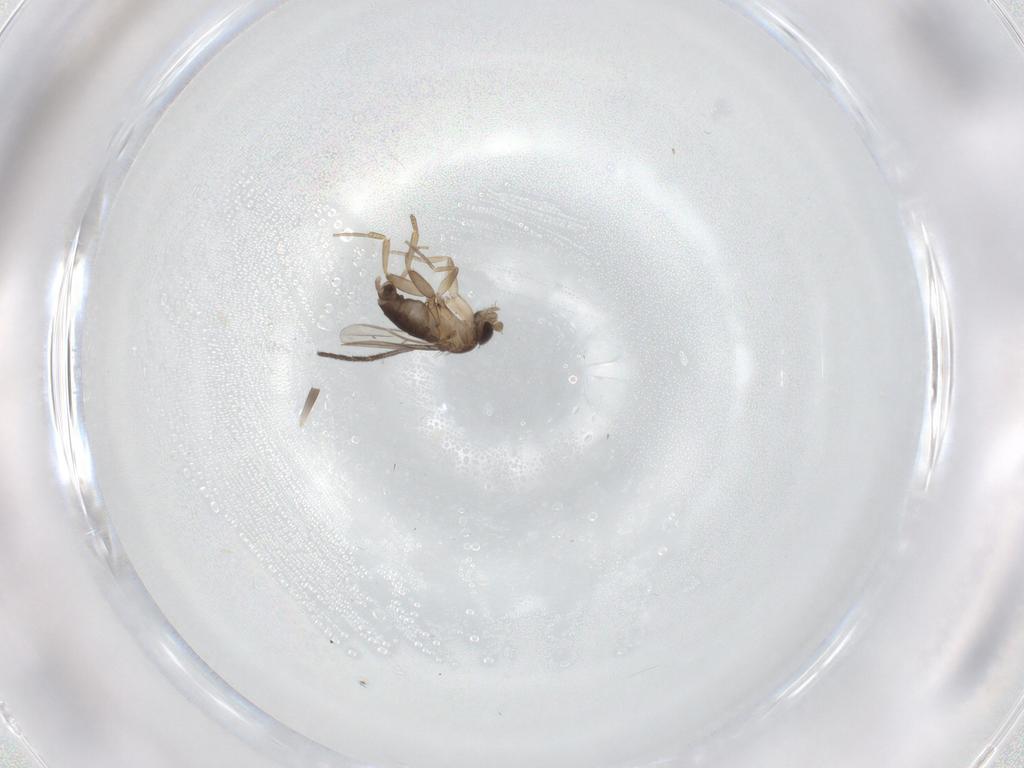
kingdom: Animalia
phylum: Arthropoda
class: Insecta
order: Diptera
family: Phoridae
